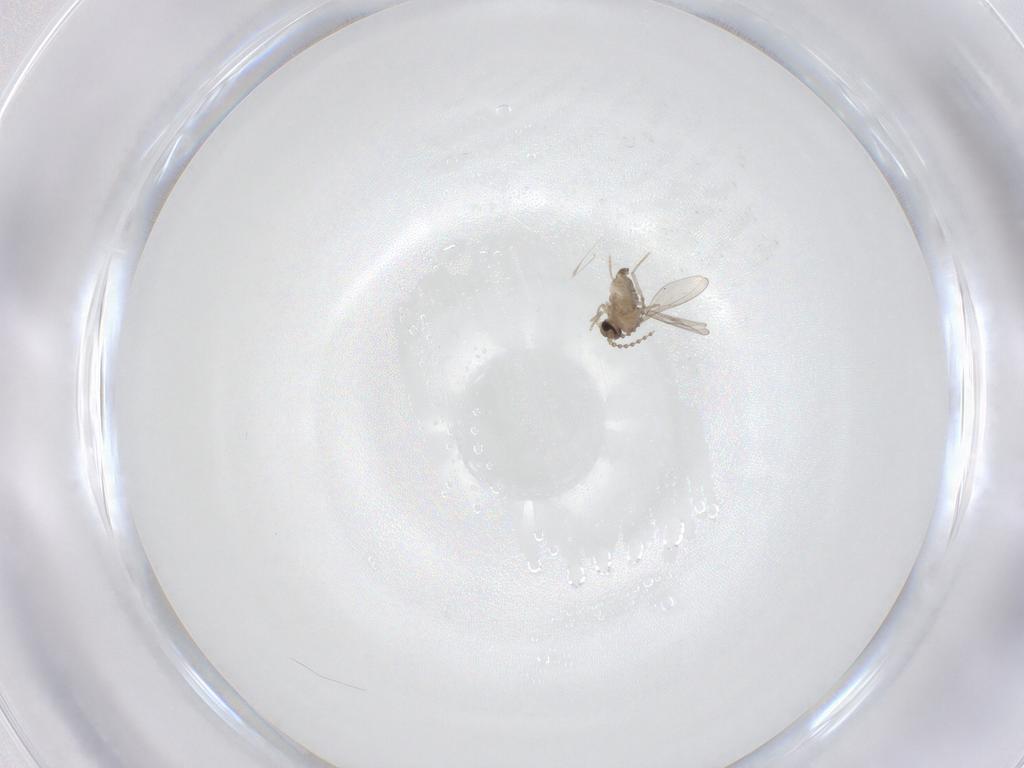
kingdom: Animalia
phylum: Arthropoda
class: Insecta
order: Diptera
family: Cecidomyiidae
